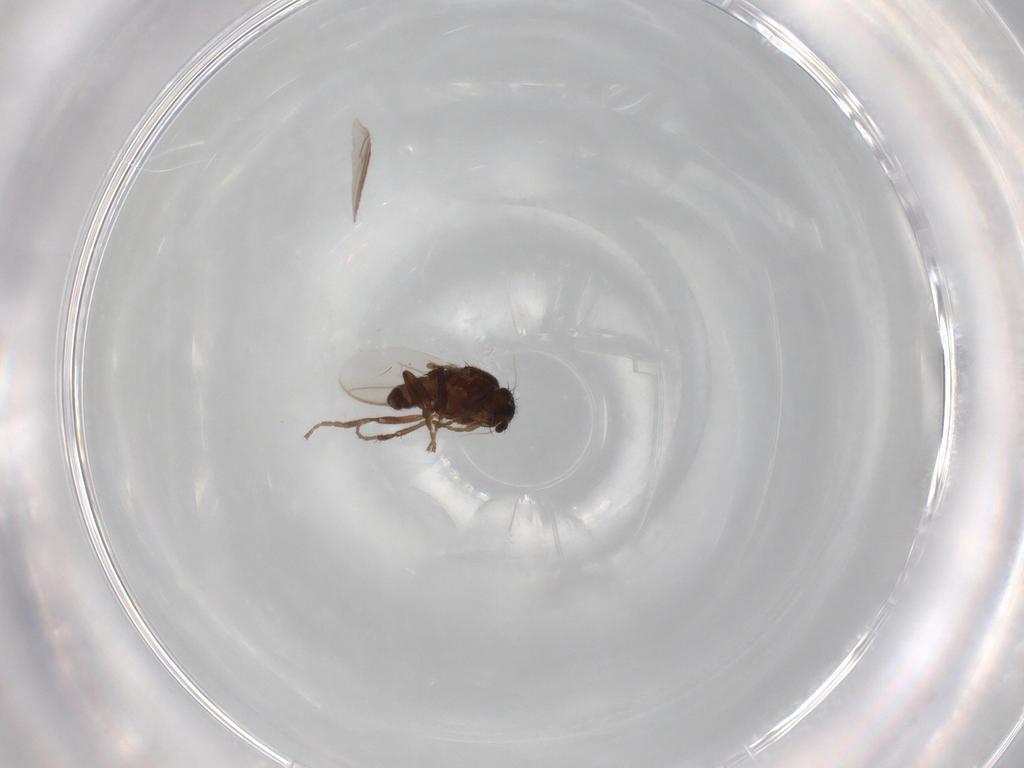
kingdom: Animalia
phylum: Arthropoda
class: Insecta
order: Diptera
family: Sphaeroceridae
